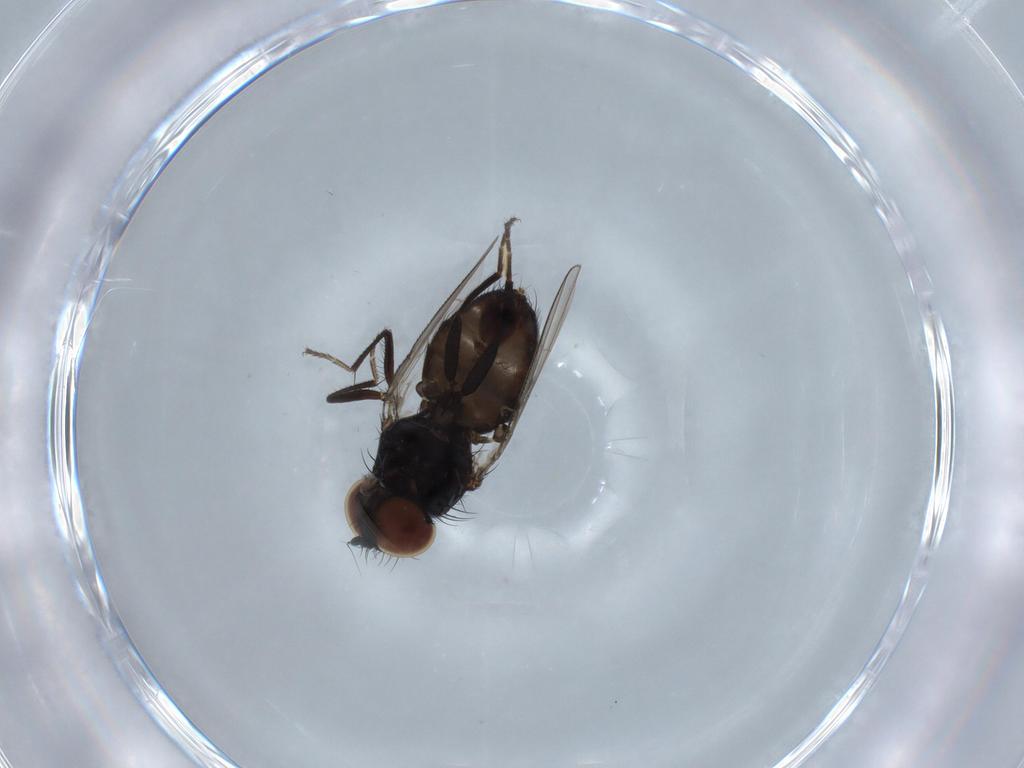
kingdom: Animalia
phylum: Arthropoda
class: Insecta
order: Diptera
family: Milichiidae
